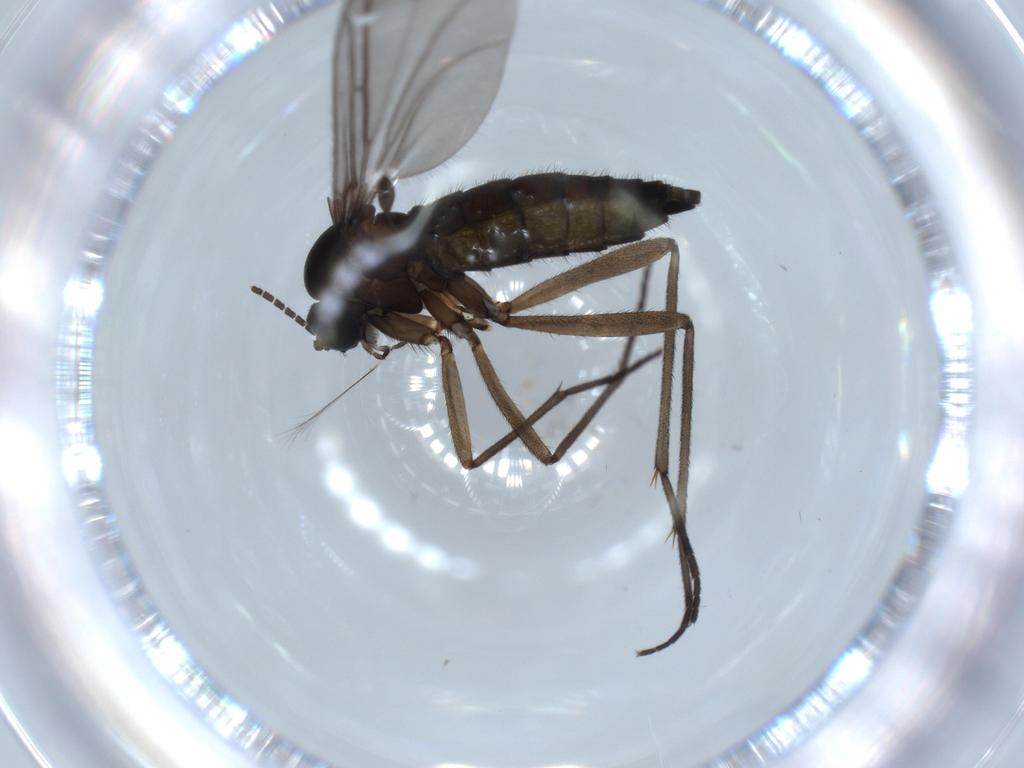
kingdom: Animalia
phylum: Arthropoda
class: Insecta
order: Diptera
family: Sciaridae
